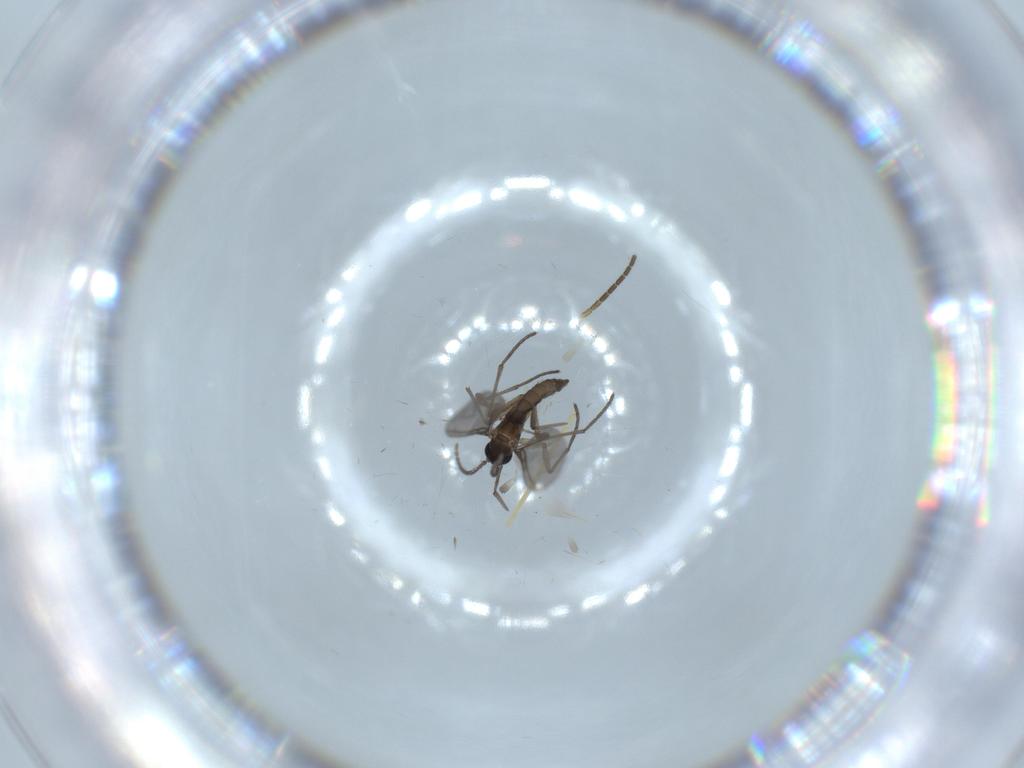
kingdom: Animalia
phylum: Arthropoda
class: Insecta
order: Diptera
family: Sciaridae
